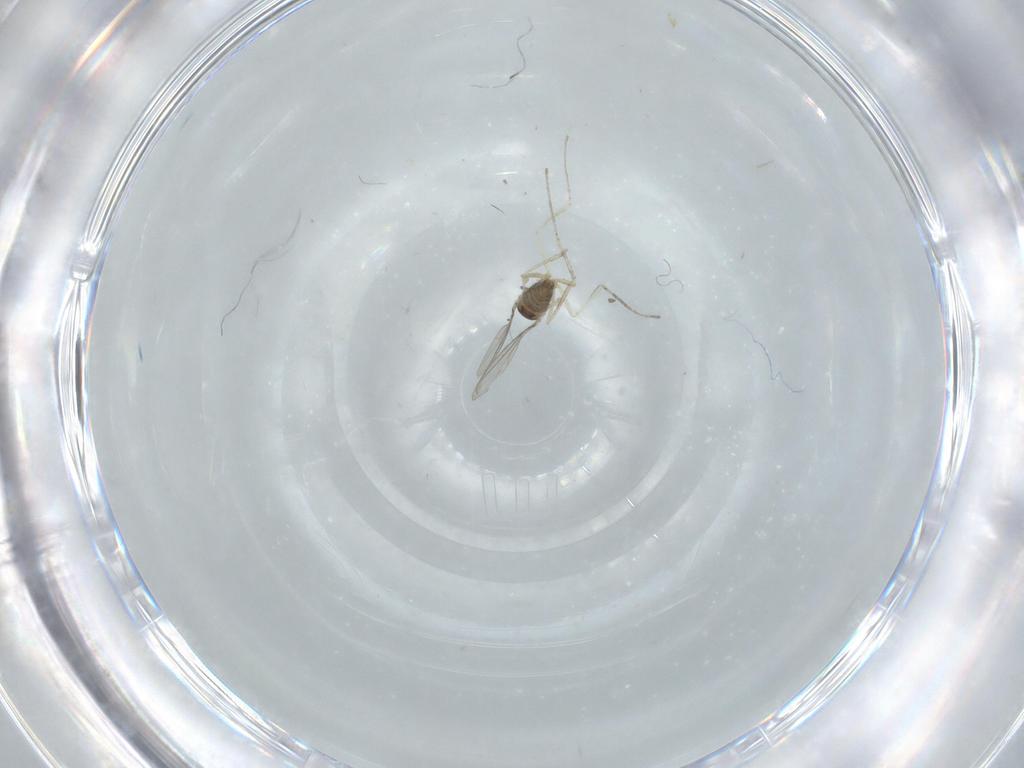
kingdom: Animalia
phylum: Arthropoda
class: Insecta
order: Diptera
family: Cecidomyiidae
